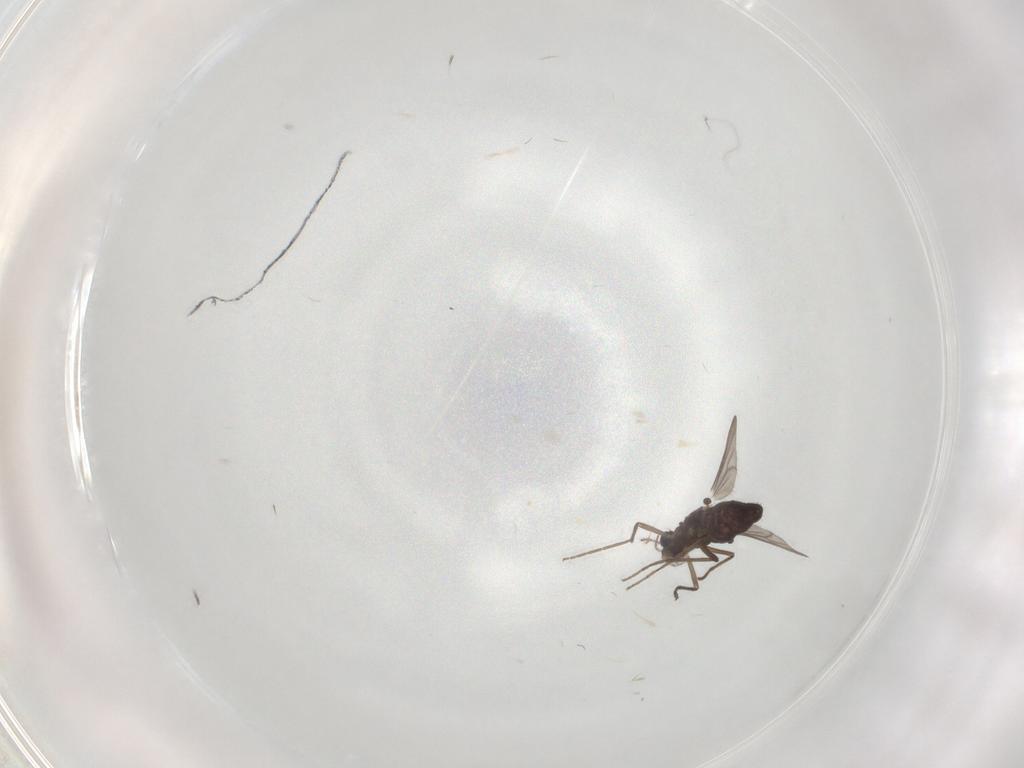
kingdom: Animalia
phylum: Arthropoda
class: Insecta
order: Diptera
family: Chironomidae
